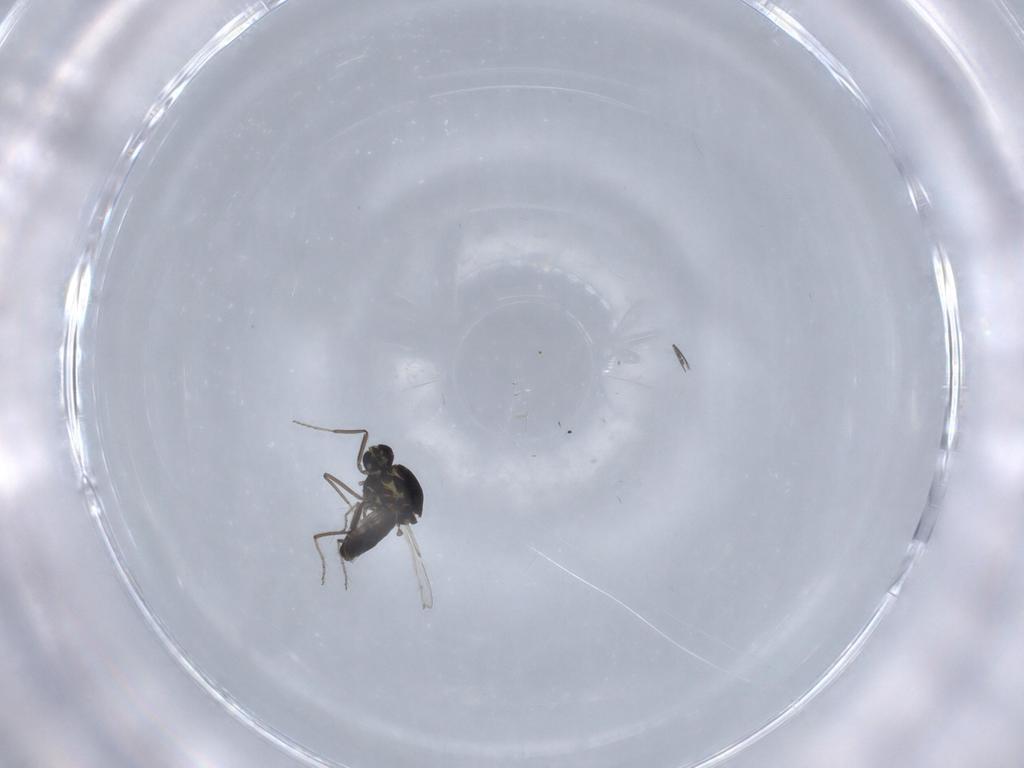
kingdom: Animalia
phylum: Arthropoda
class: Insecta
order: Diptera
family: Ceratopogonidae
